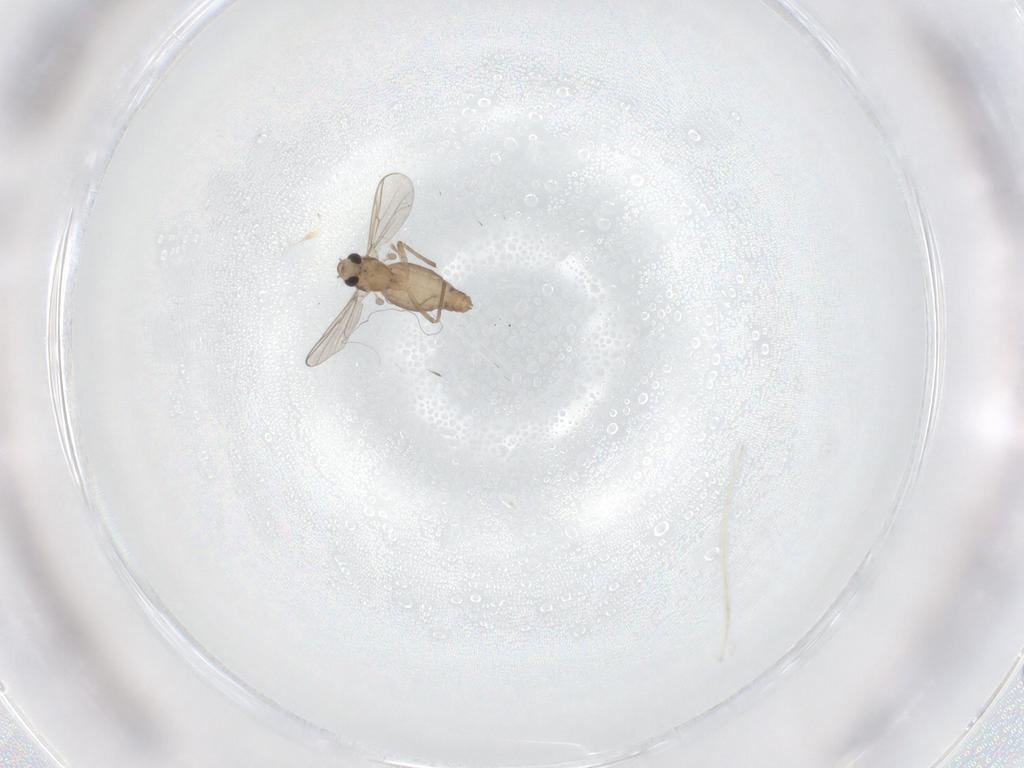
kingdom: Animalia
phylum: Arthropoda
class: Insecta
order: Diptera
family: Chironomidae
